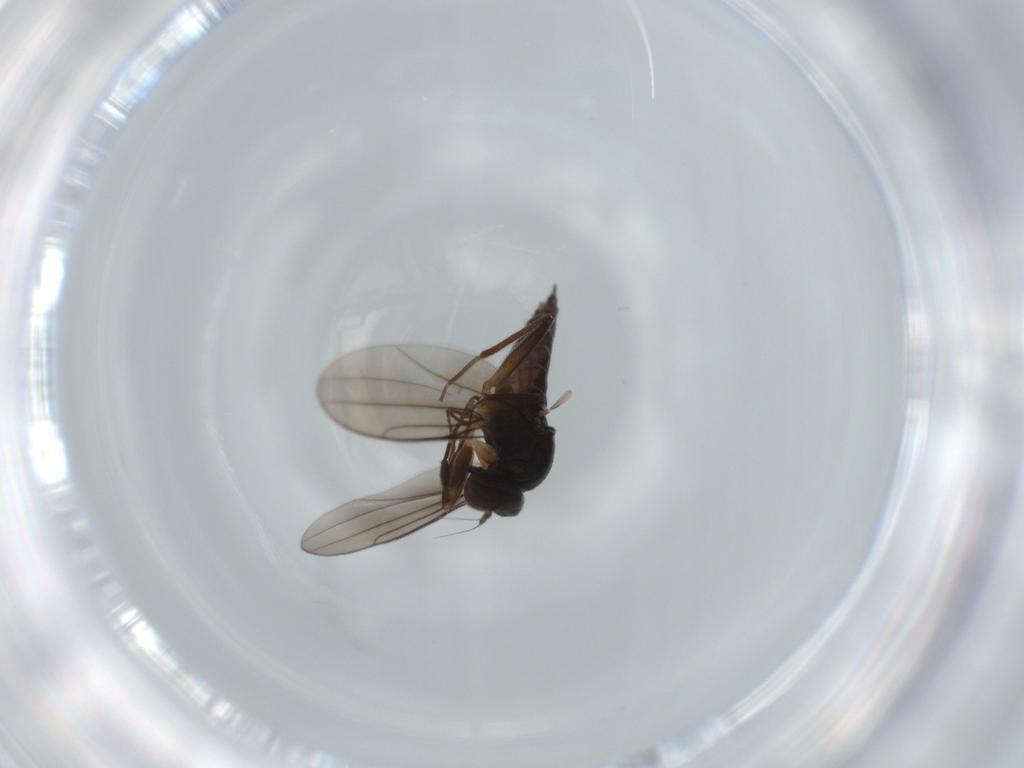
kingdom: Animalia
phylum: Arthropoda
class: Insecta
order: Diptera
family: Hybotidae
